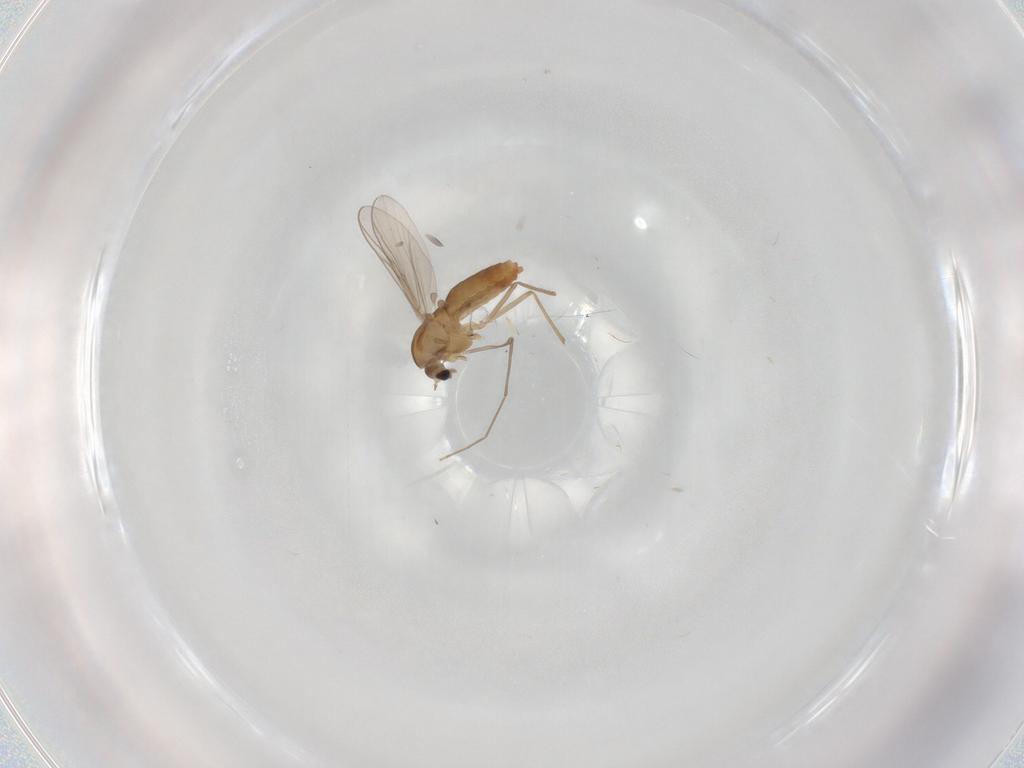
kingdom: Animalia
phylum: Arthropoda
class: Insecta
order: Diptera
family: Chironomidae
